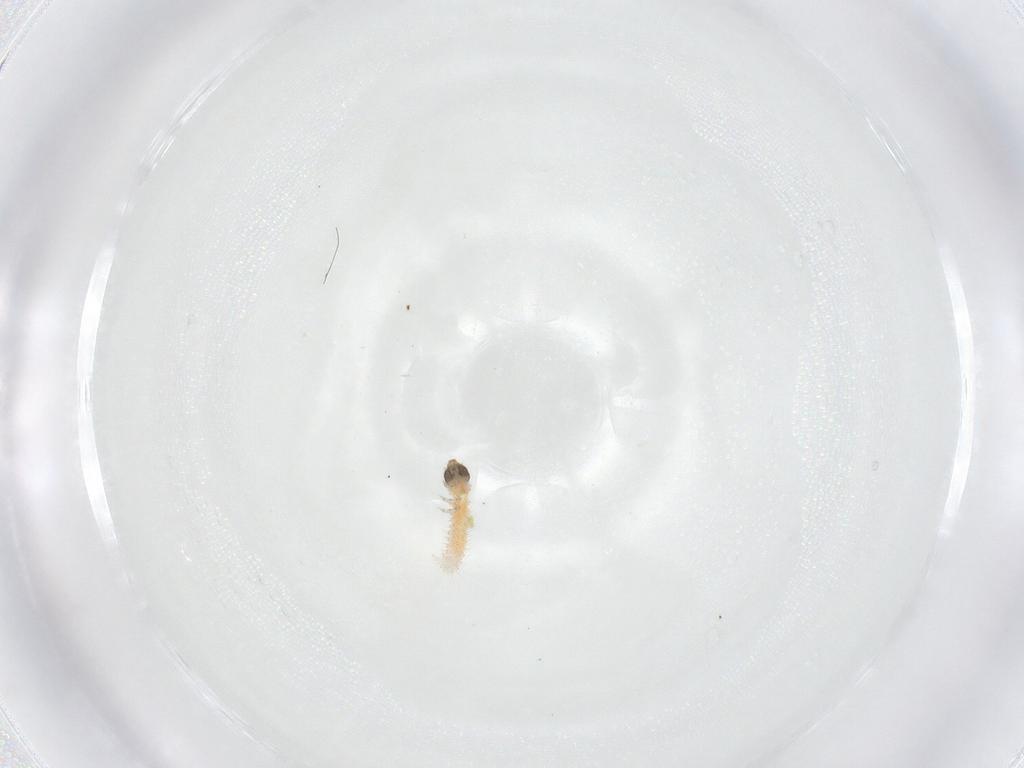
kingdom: Animalia
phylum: Arthropoda
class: Insecta
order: Lepidoptera
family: Crambidae
